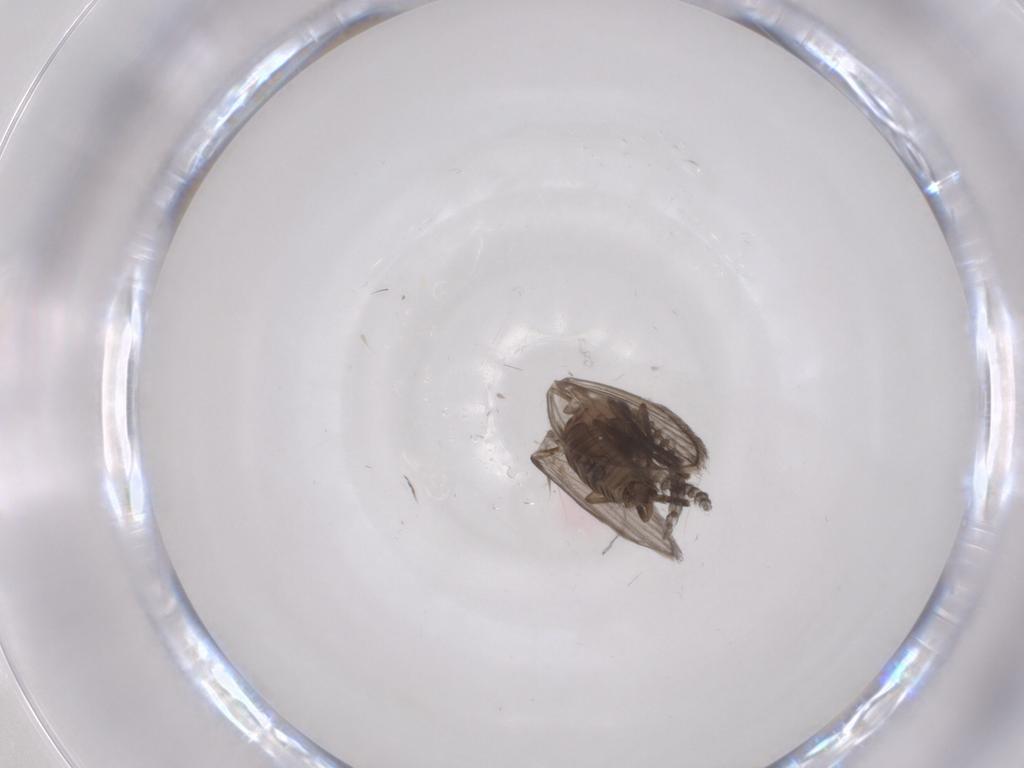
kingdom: Animalia
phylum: Arthropoda
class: Insecta
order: Diptera
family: Psychodidae
